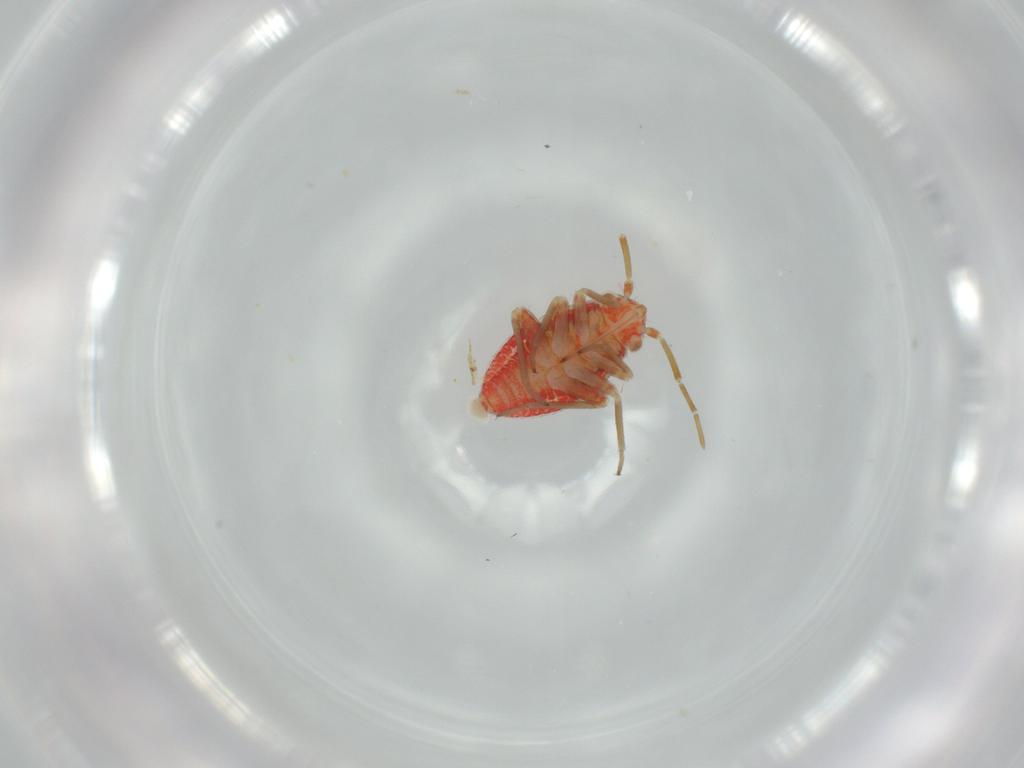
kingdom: Animalia
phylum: Arthropoda
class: Insecta
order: Hemiptera
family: Miridae
